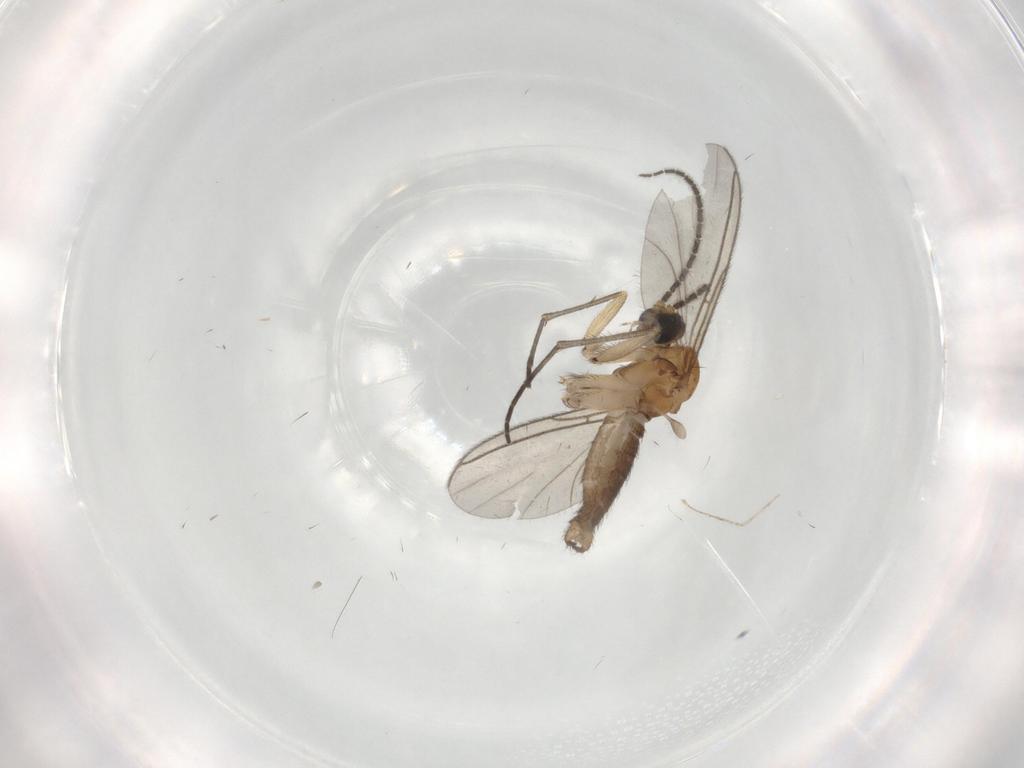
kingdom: Animalia
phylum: Arthropoda
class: Insecta
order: Diptera
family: Sciaridae
